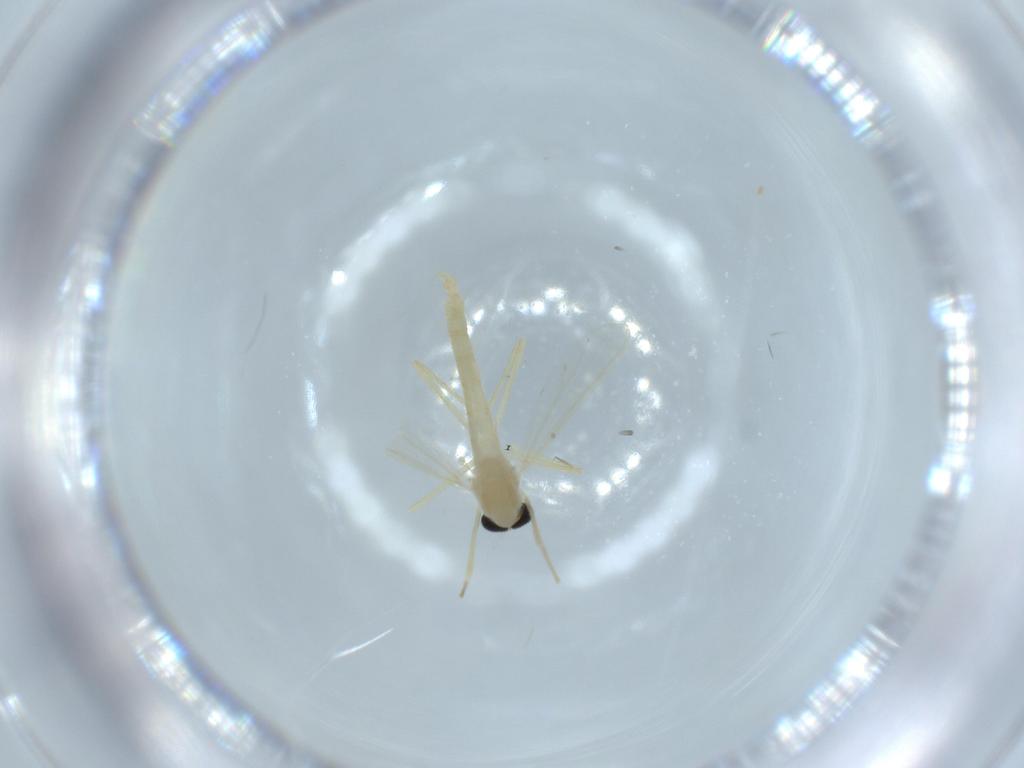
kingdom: Animalia
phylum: Arthropoda
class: Insecta
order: Diptera
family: Chironomidae
